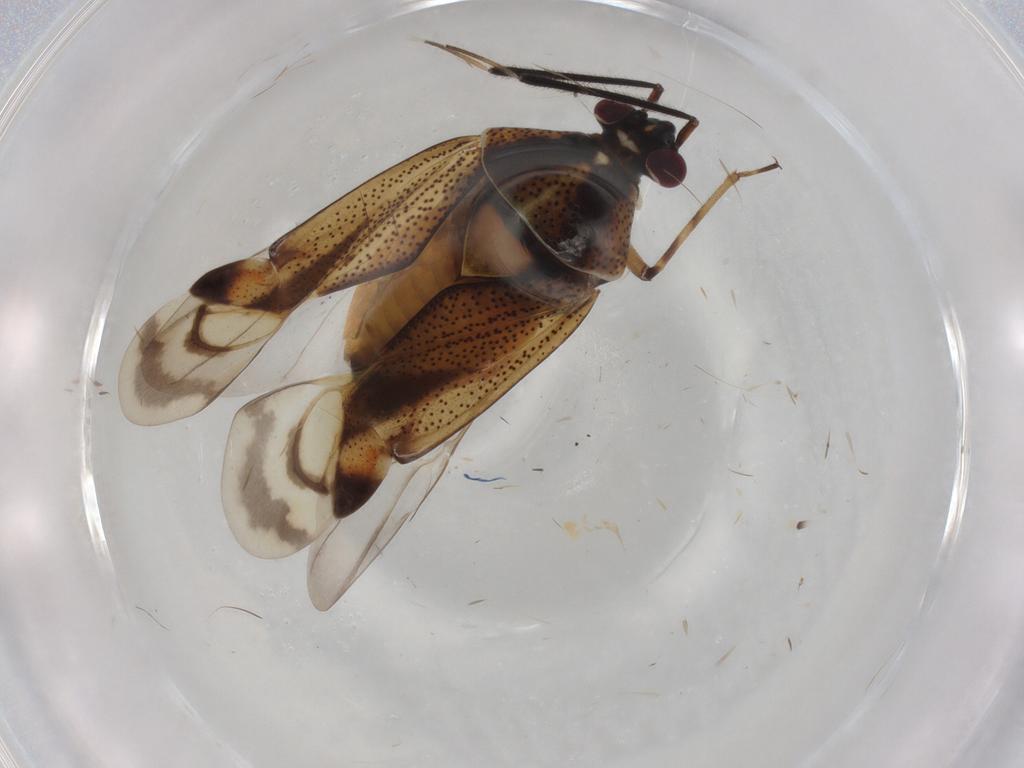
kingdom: Animalia
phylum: Arthropoda
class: Insecta
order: Hemiptera
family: Miridae
